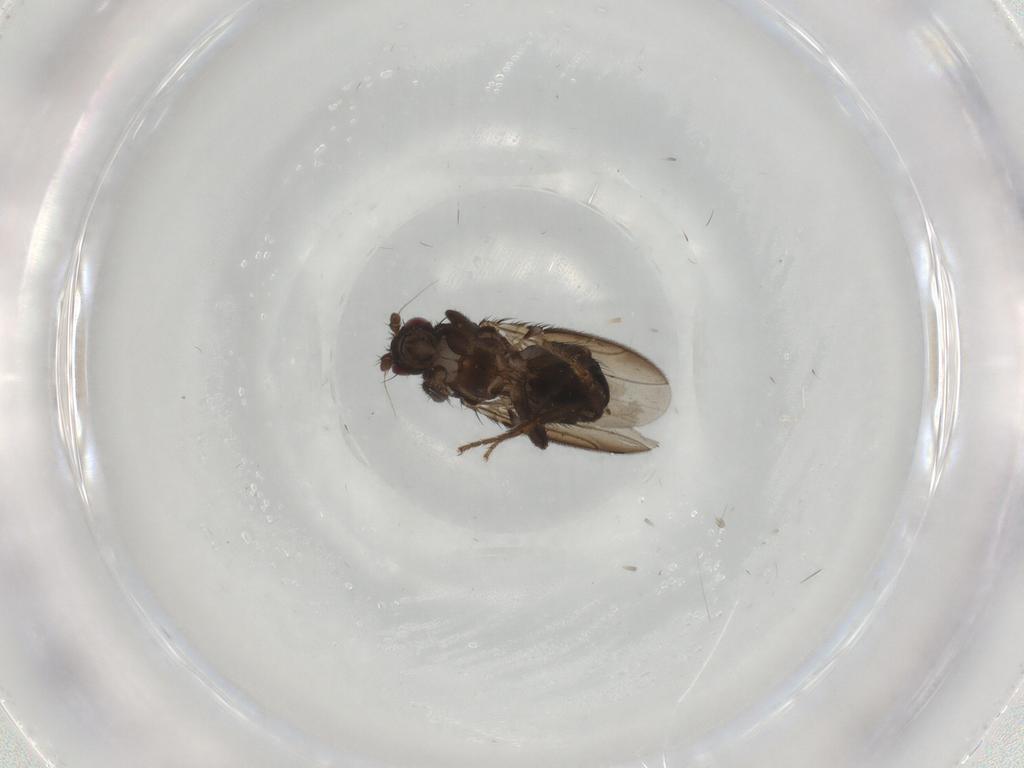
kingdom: Animalia
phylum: Arthropoda
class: Insecta
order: Diptera
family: Sphaeroceridae
